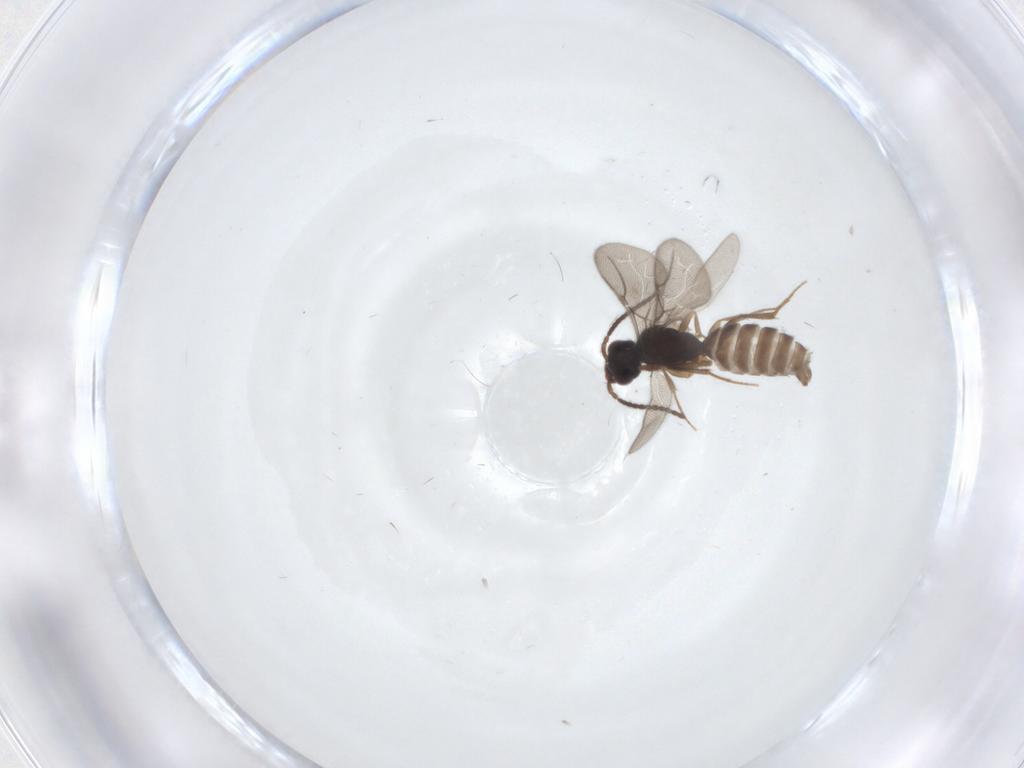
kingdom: Animalia
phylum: Arthropoda
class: Insecta
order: Hymenoptera
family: Bethylidae
